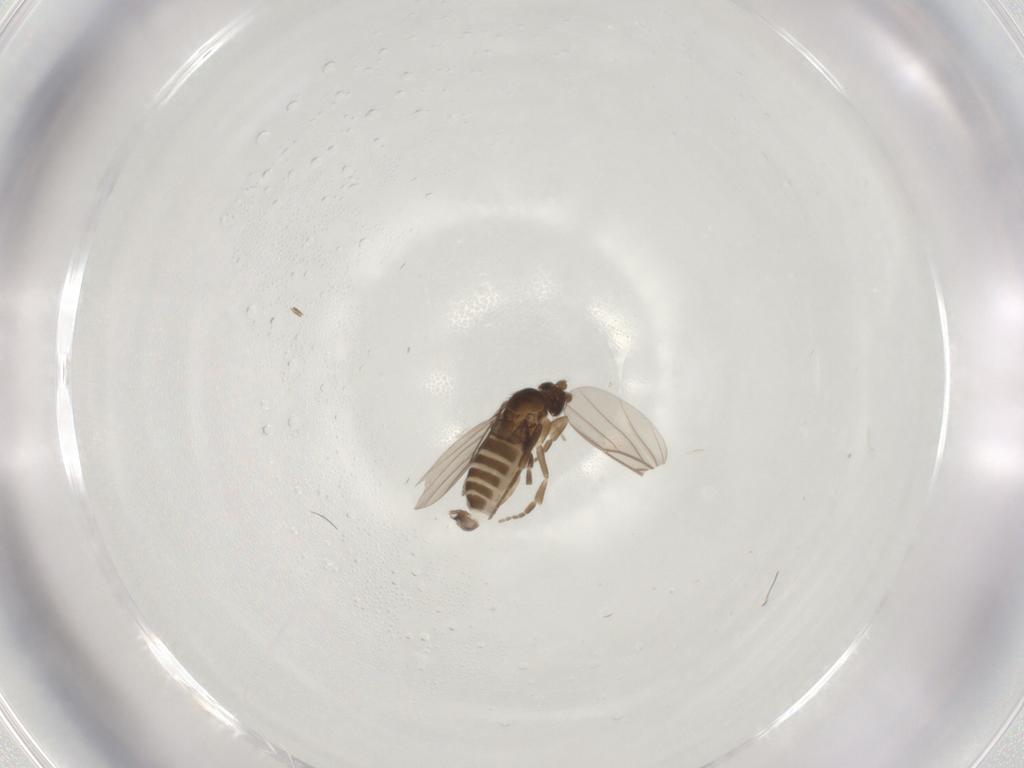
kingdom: Animalia
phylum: Arthropoda
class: Insecta
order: Diptera
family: Phoridae
